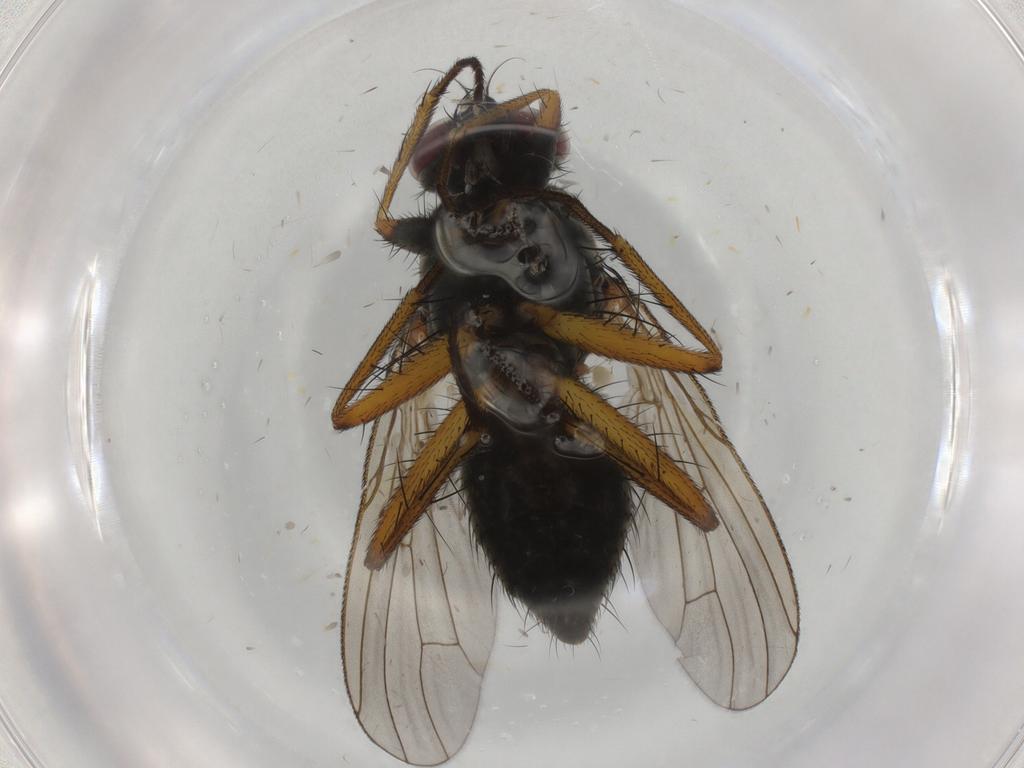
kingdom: Animalia
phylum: Arthropoda
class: Insecta
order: Diptera
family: Muscidae
